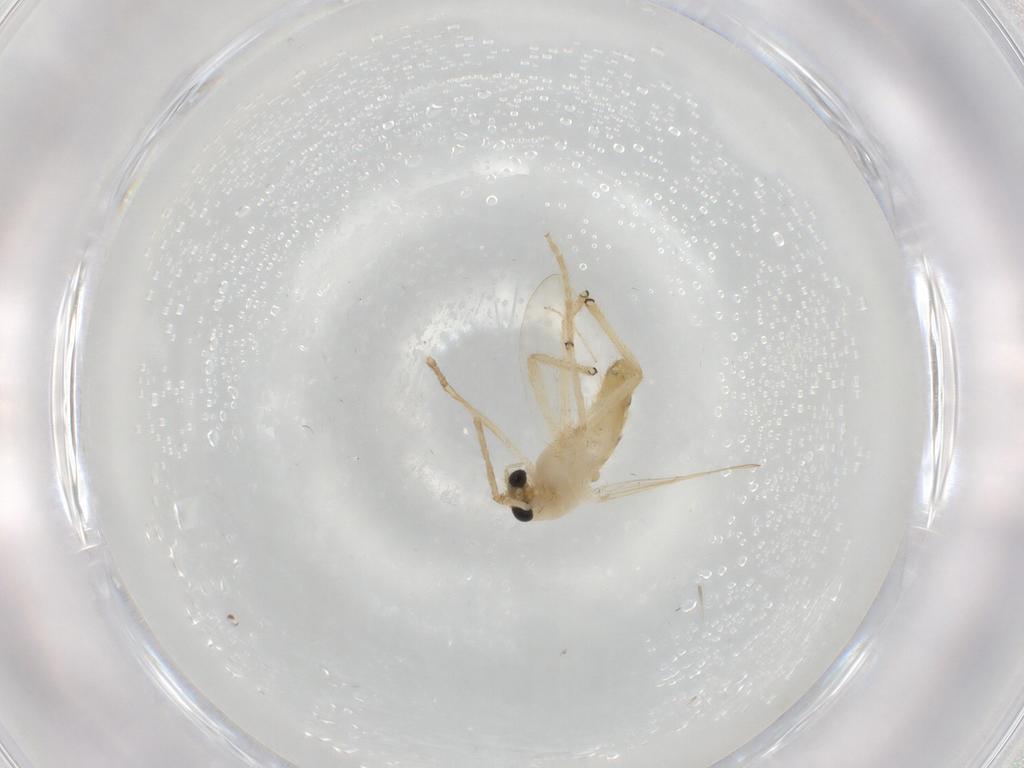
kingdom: Animalia
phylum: Arthropoda
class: Insecta
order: Diptera
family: Chironomidae
